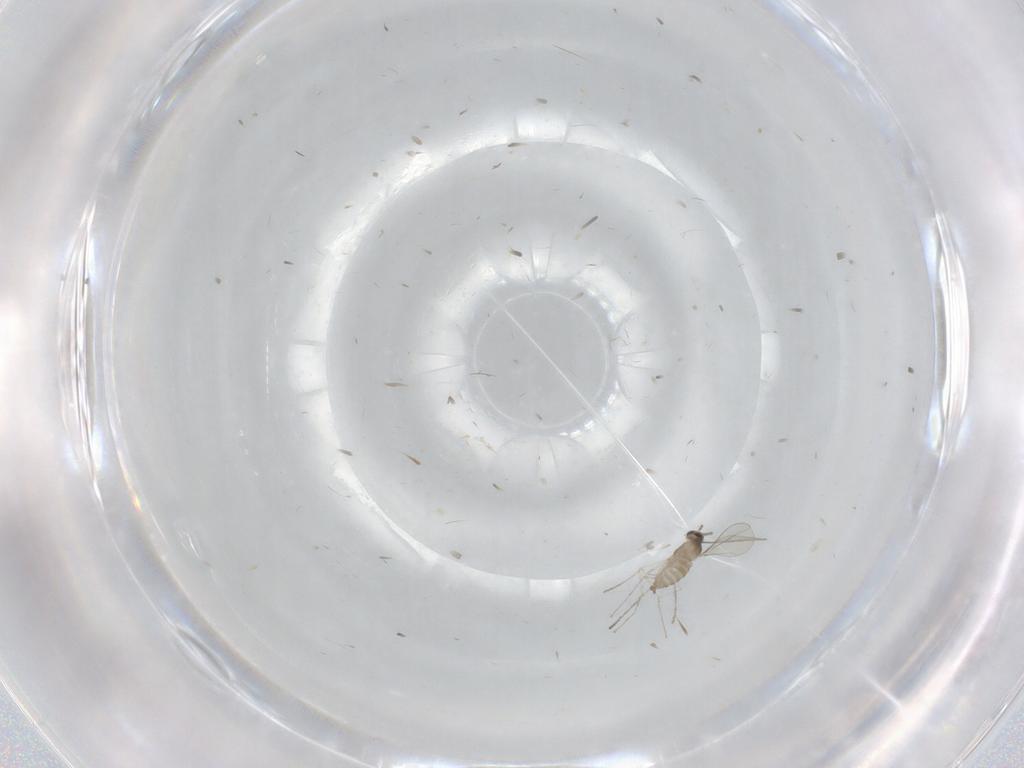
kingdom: Animalia
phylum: Arthropoda
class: Insecta
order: Diptera
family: Cecidomyiidae
